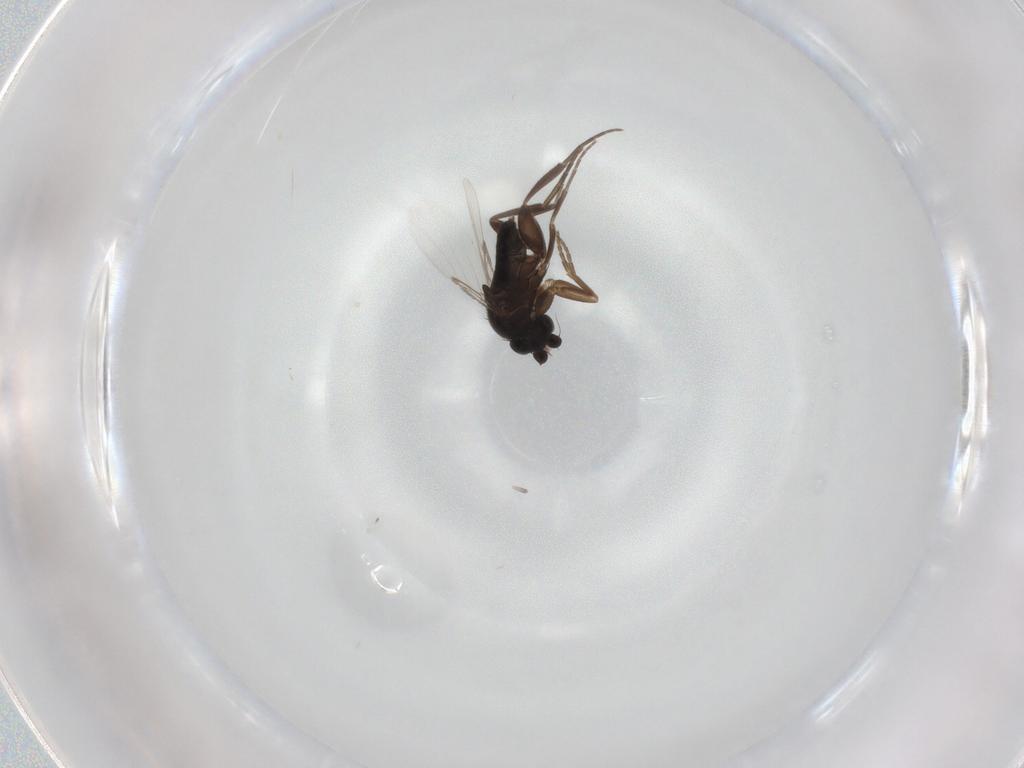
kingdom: Animalia
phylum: Arthropoda
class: Insecta
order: Diptera
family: Phoridae
